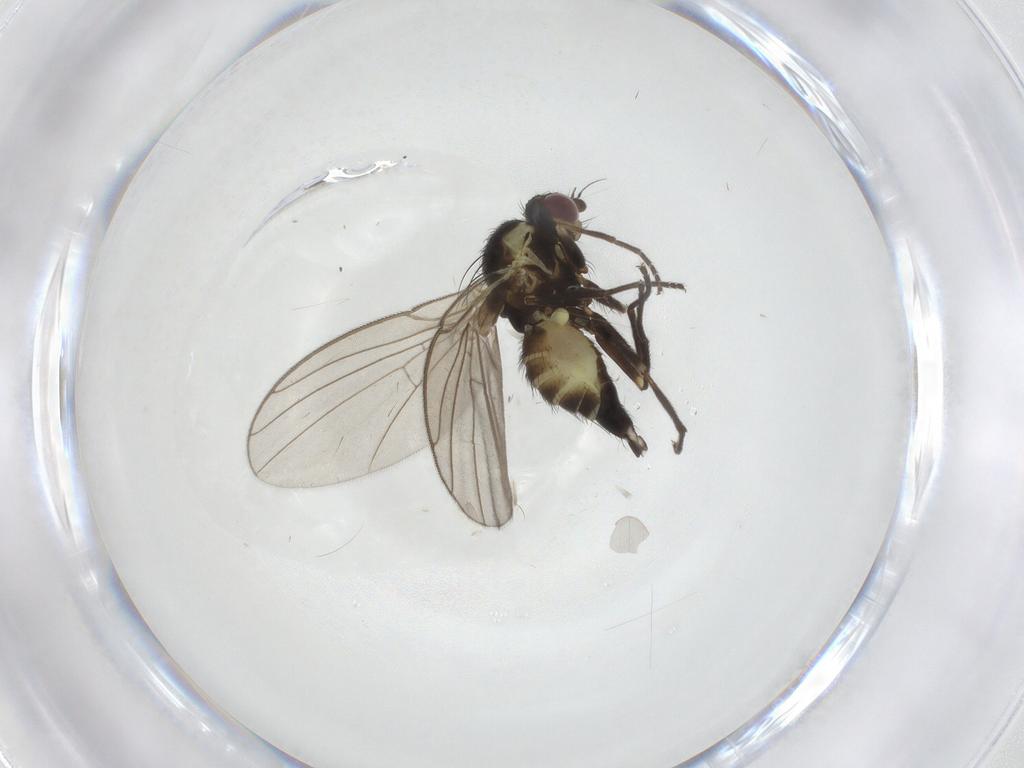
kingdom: Animalia
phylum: Arthropoda
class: Insecta
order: Diptera
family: Agromyzidae
